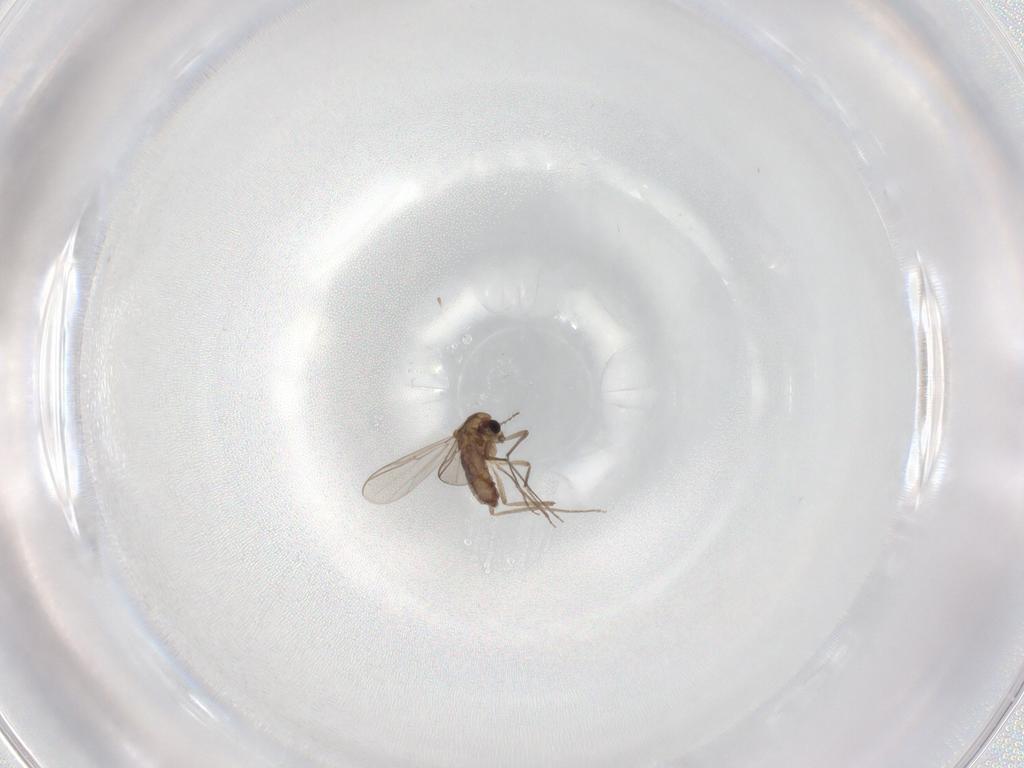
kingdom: Animalia
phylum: Arthropoda
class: Insecta
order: Diptera
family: Chironomidae
